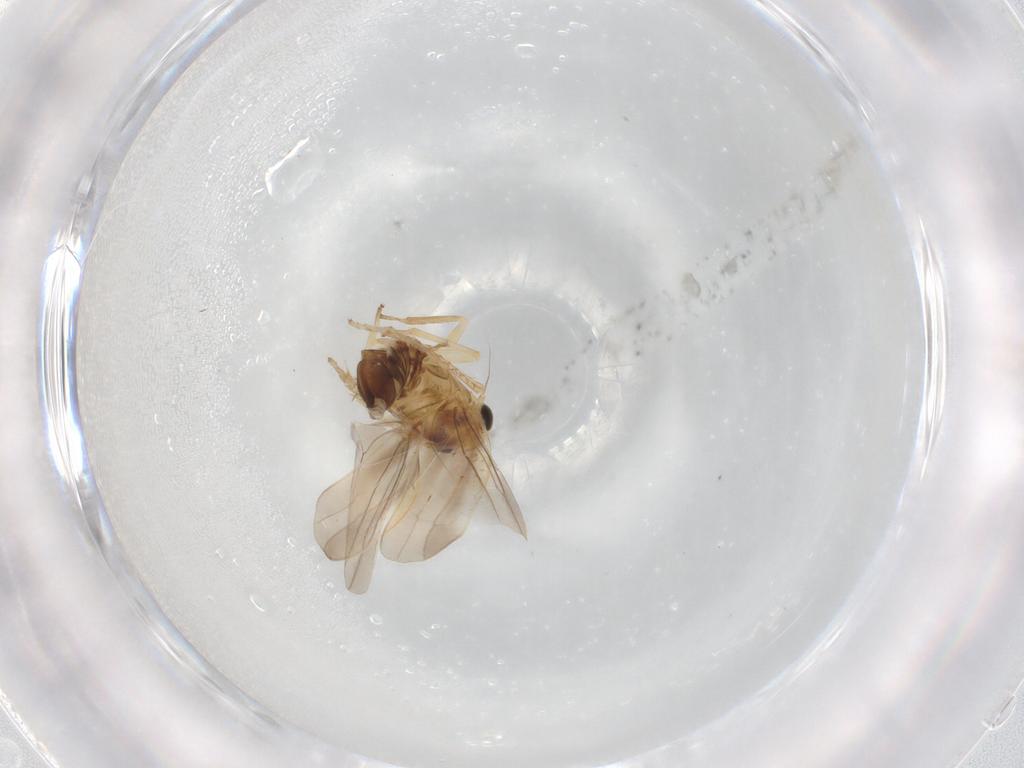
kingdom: Animalia
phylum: Arthropoda
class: Insecta
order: Hemiptera
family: Cicadellidae
